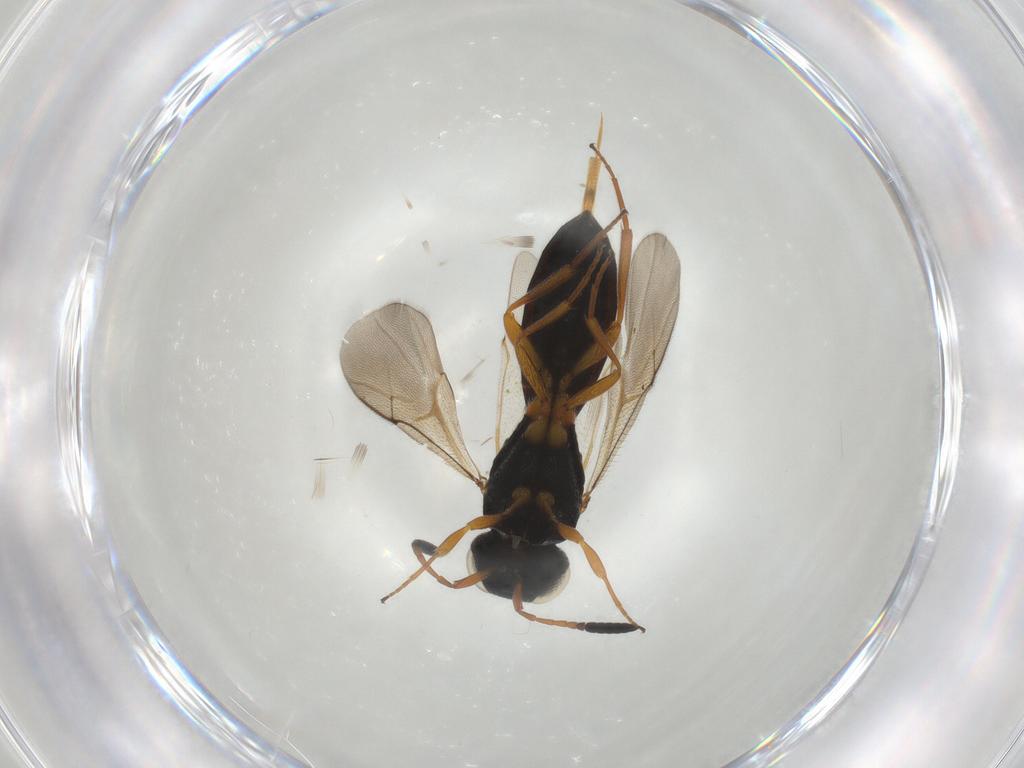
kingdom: Animalia
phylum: Arthropoda
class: Insecta
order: Hymenoptera
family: Scelionidae
